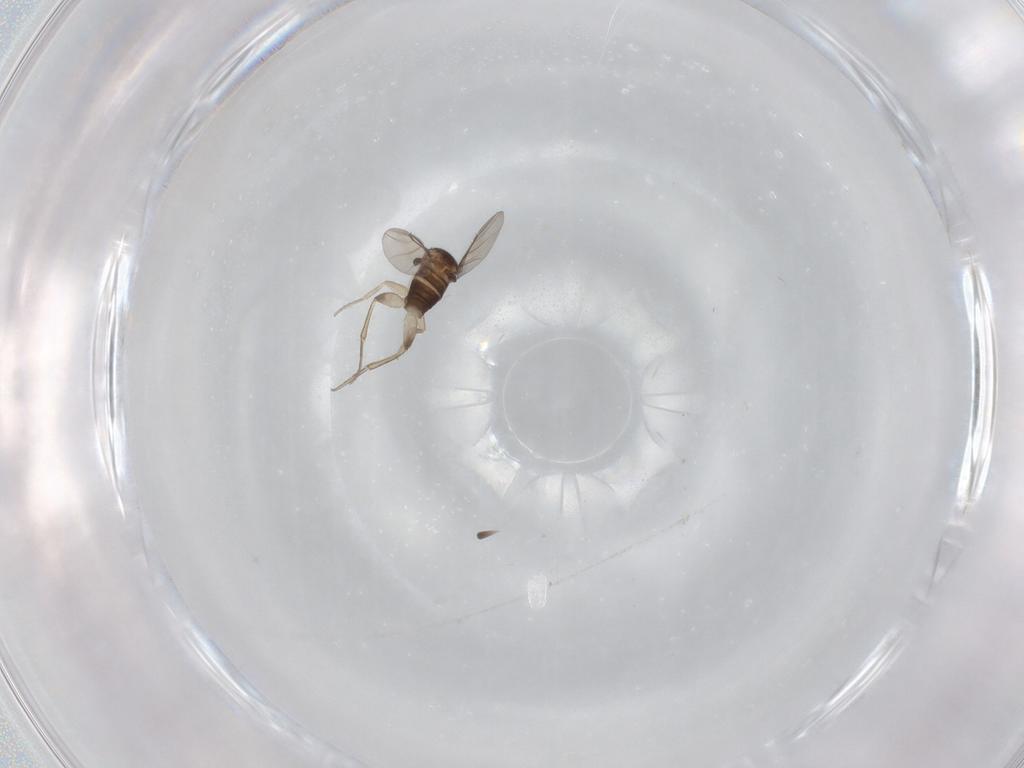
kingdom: Animalia
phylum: Arthropoda
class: Insecta
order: Diptera
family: Phoridae
